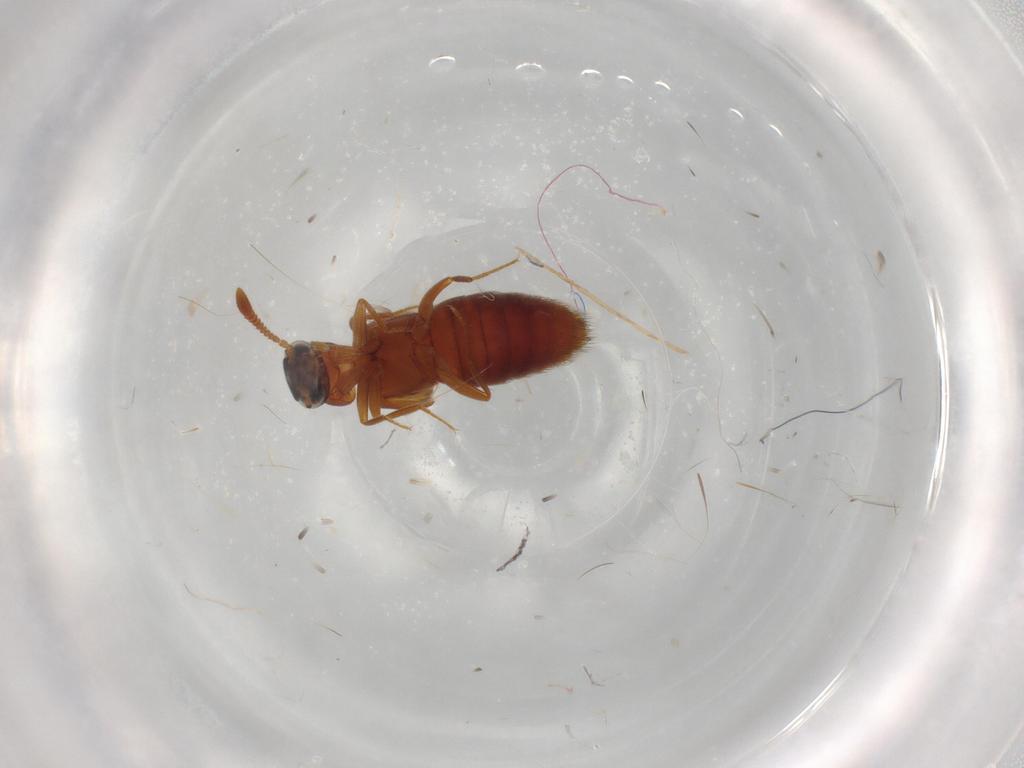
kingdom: Animalia
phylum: Arthropoda
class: Insecta
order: Coleoptera
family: Staphylinidae
